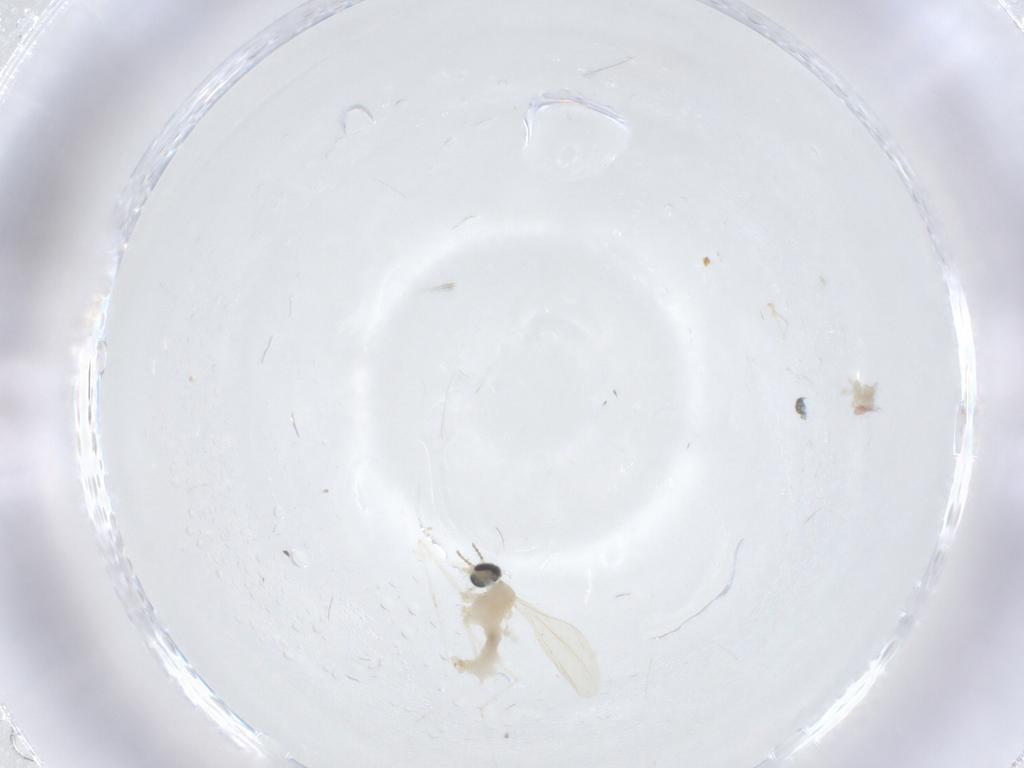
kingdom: Animalia
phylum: Arthropoda
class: Insecta
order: Diptera
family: Cecidomyiidae
